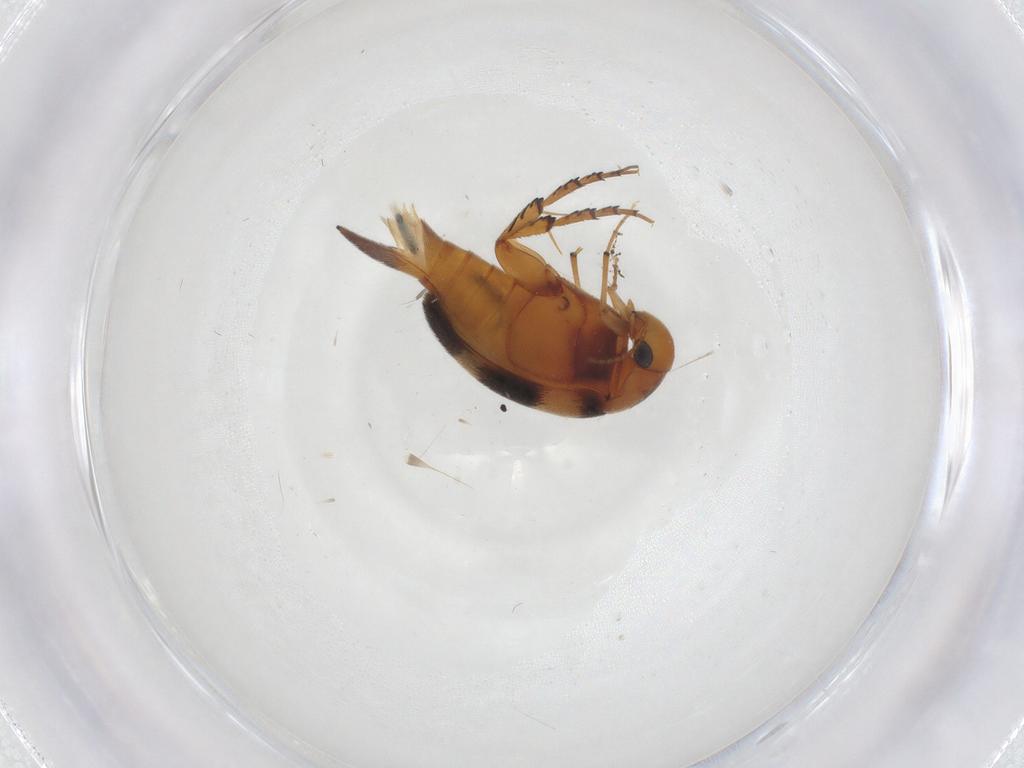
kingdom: Animalia
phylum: Arthropoda
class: Insecta
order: Coleoptera
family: Mordellidae
